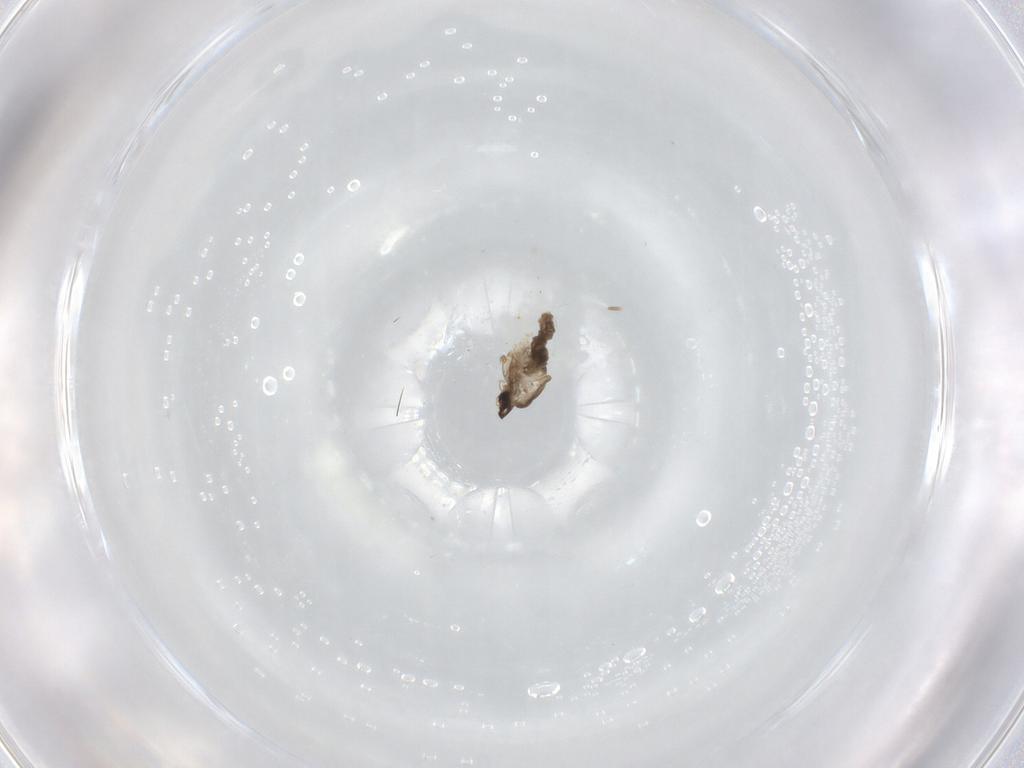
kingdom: Animalia
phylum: Arthropoda
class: Insecta
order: Diptera
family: Cecidomyiidae
